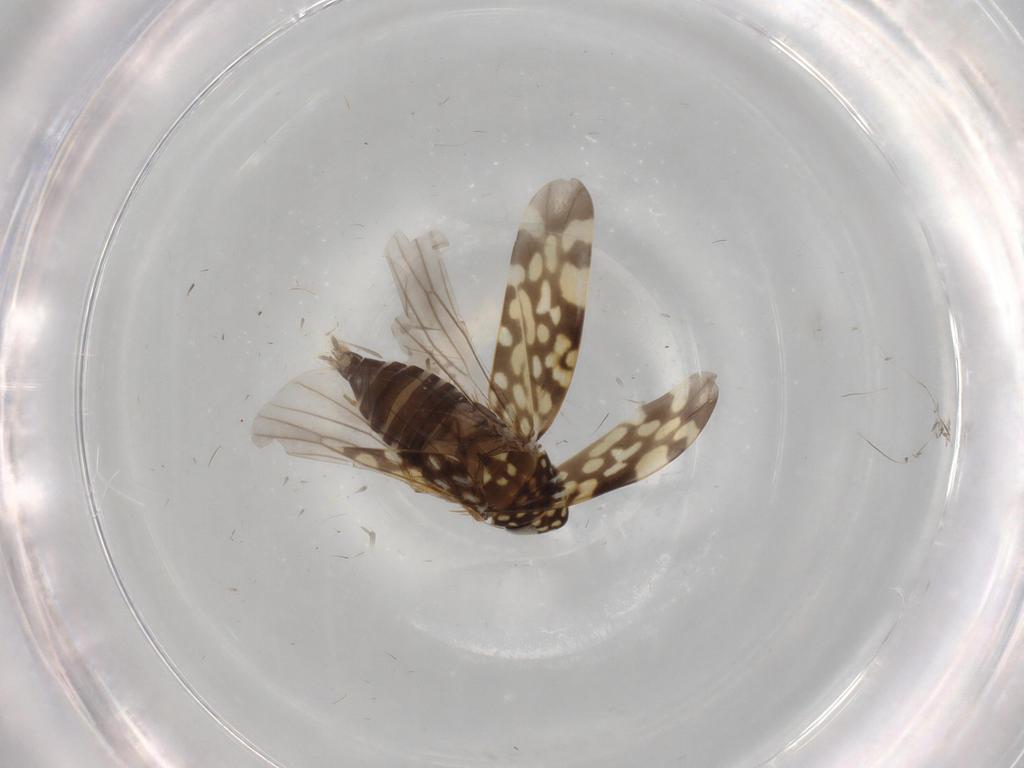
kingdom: Animalia
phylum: Arthropoda
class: Insecta
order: Hemiptera
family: Cicadellidae
